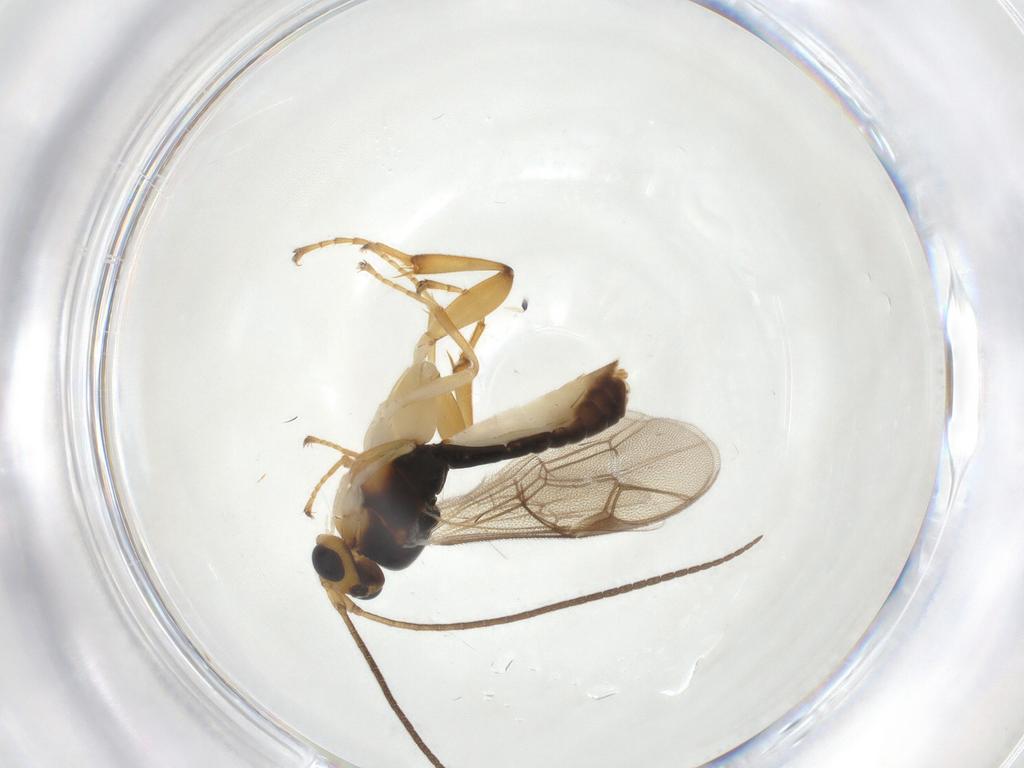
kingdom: Animalia
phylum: Arthropoda
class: Insecta
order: Hymenoptera
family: Ichneumonidae
